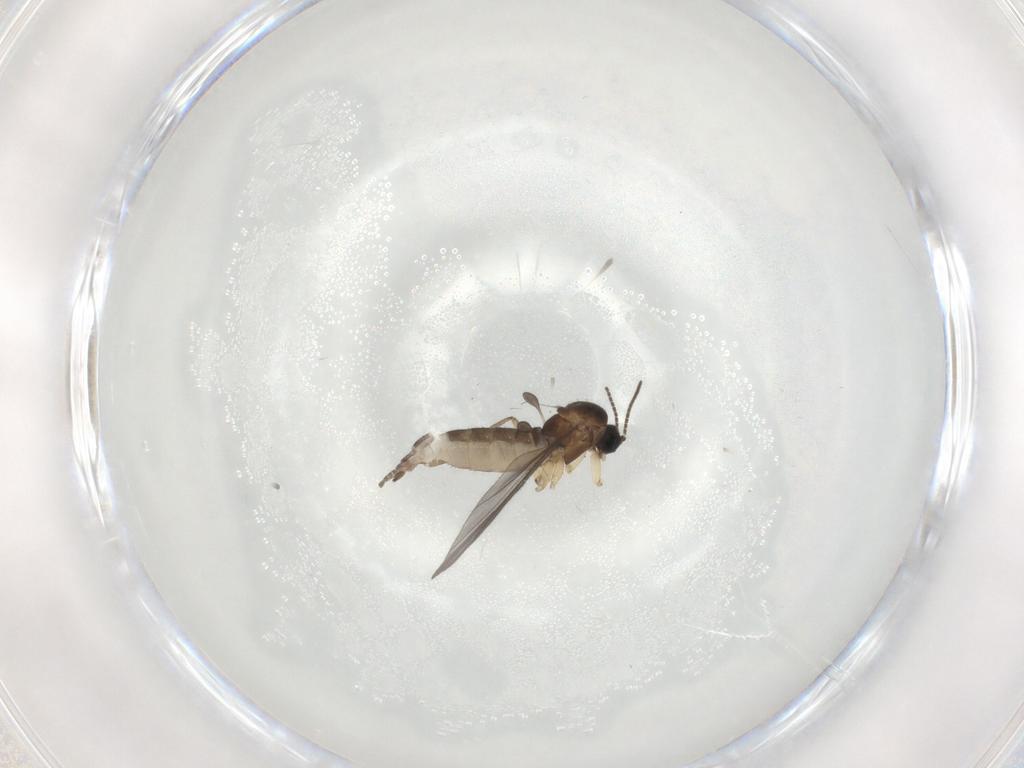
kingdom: Animalia
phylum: Arthropoda
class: Insecta
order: Diptera
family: Sciaridae
